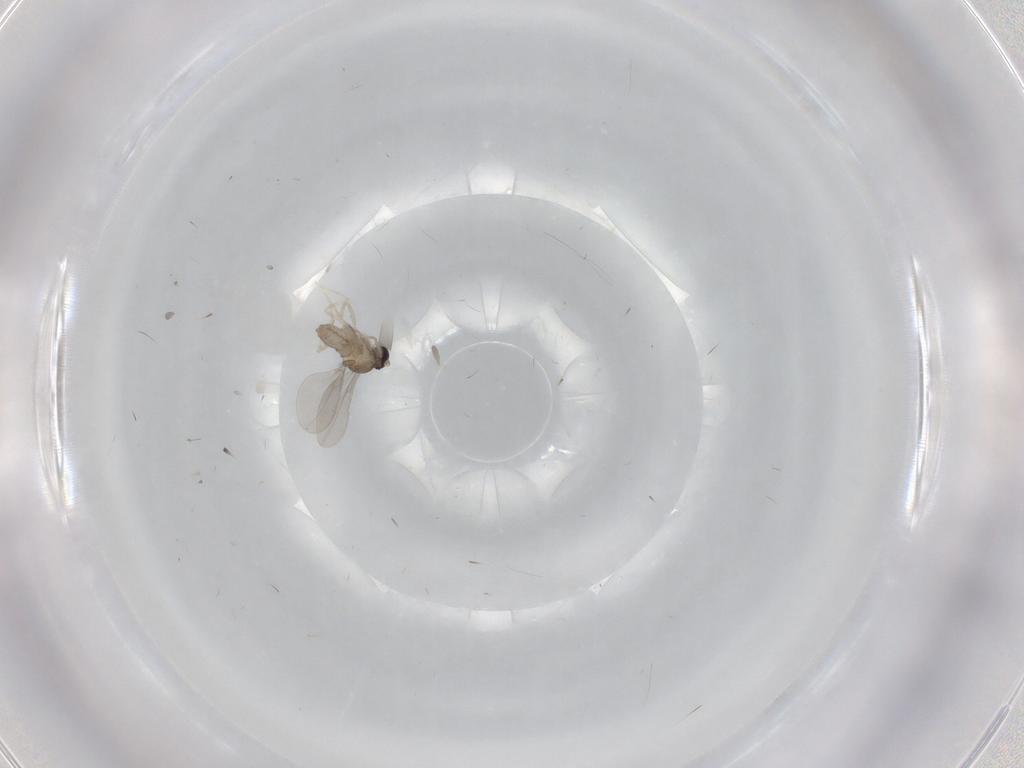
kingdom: Animalia
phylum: Arthropoda
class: Insecta
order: Diptera
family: Cecidomyiidae
